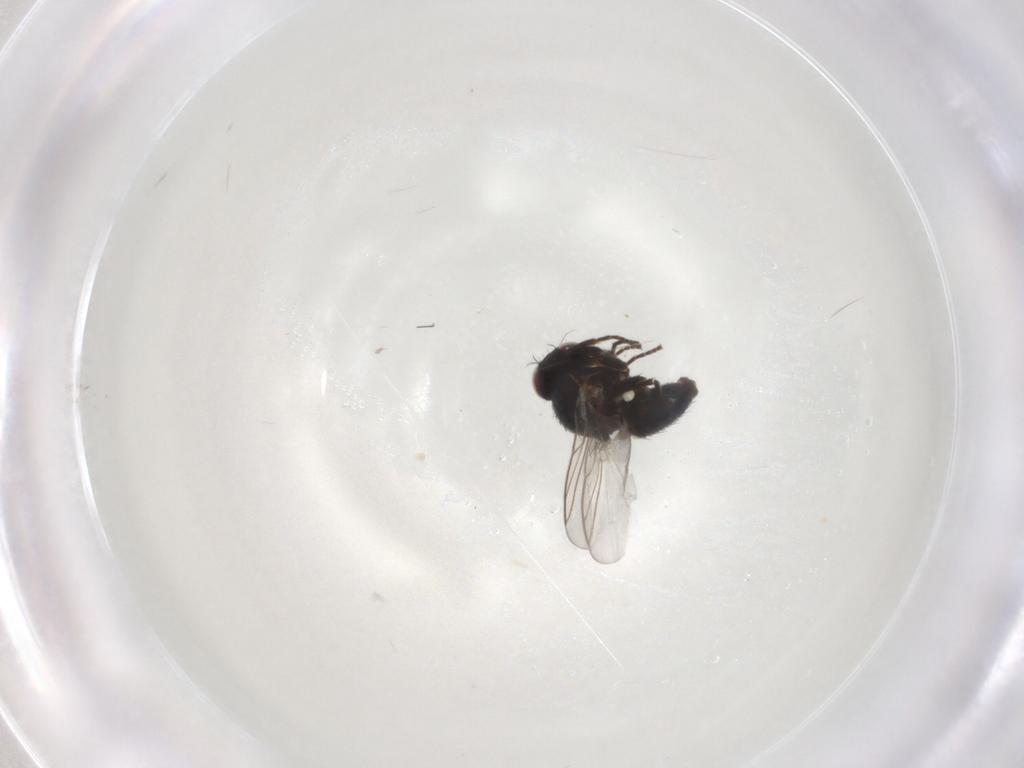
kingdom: Animalia
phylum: Arthropoda
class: Insecta
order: Diptera
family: Glossinidae
